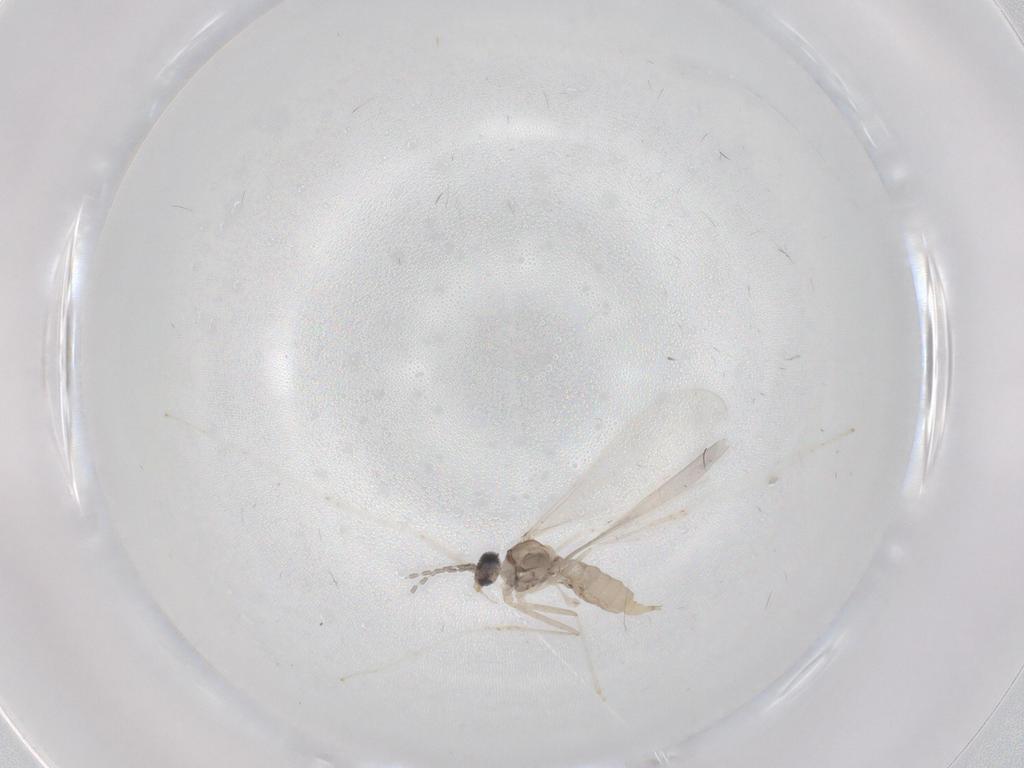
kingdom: Animalia
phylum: Arthropoda
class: Insecta
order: Diptera
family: Cecidomyiidae
